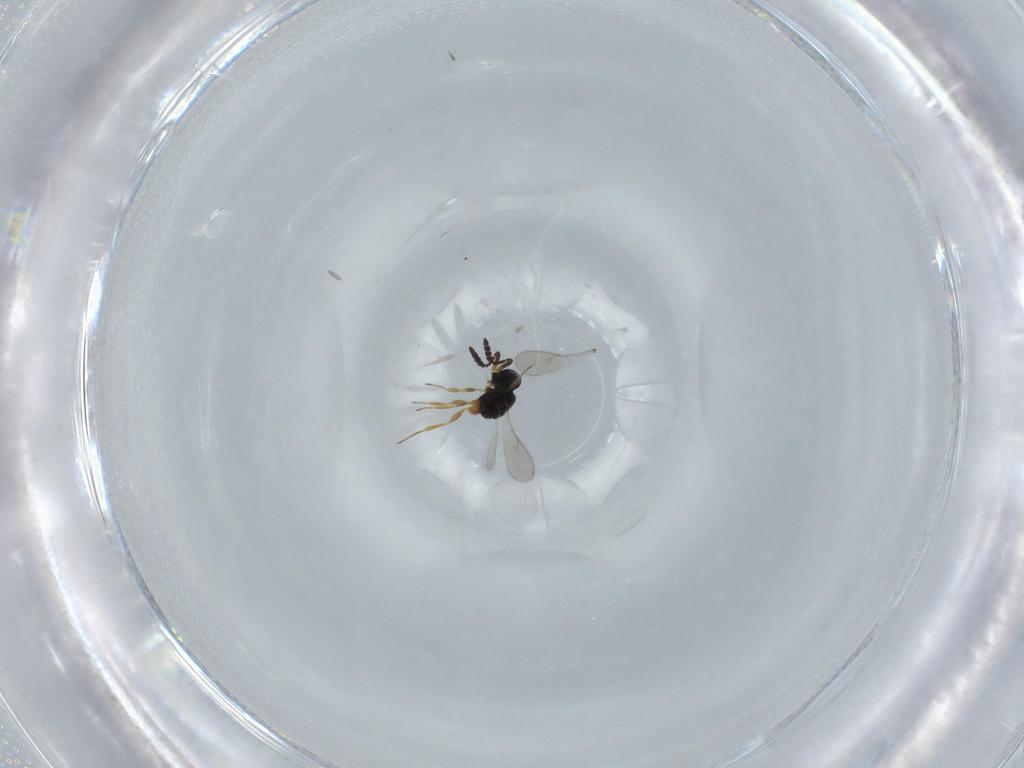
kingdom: Animalia
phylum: Arthropoda
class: Insecta
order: Hymenoptera
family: Scelionidae
